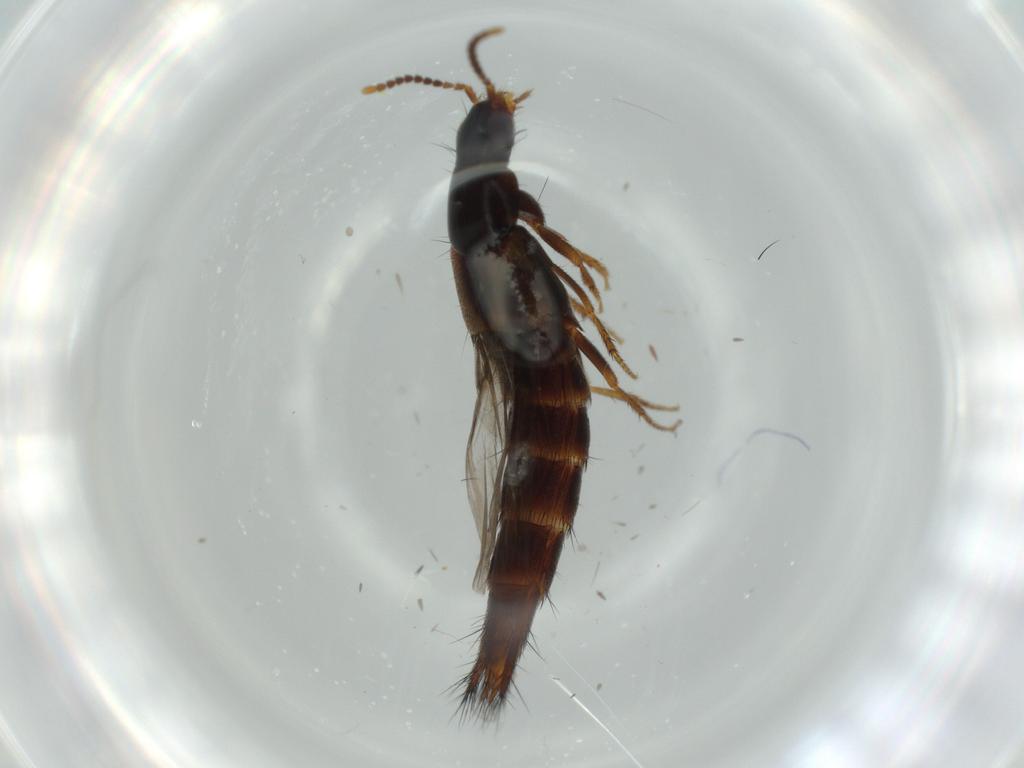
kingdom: Animalia
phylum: Arthropoda
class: Insecta
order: Coleoptera
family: Staphylinidae
